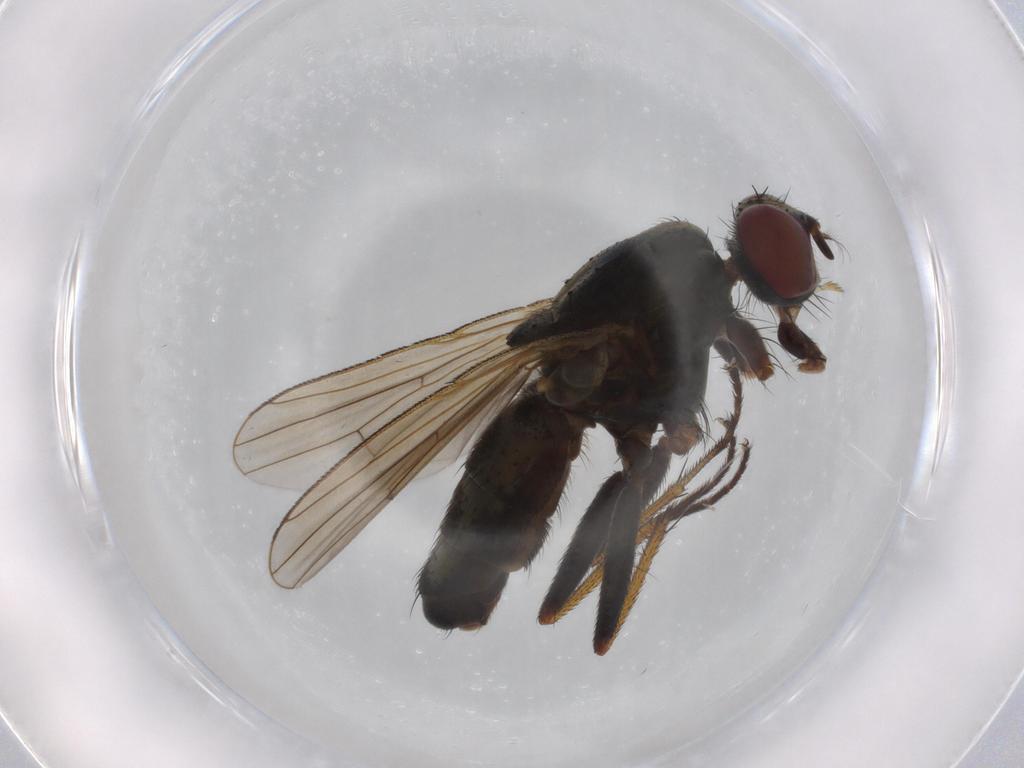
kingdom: Animalia
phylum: Arthropoda
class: Insecta
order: Diptera
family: Muscidae
